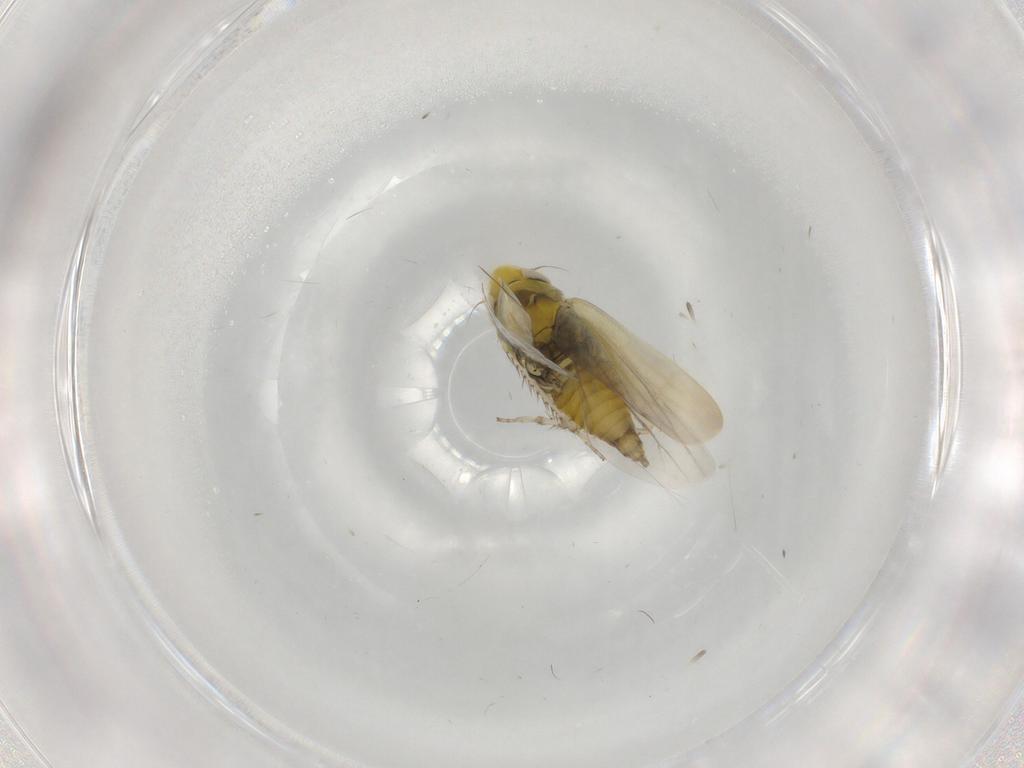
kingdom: Animalia
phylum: Arthropoda
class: Insecta
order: Hemiptera
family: Cicadellidae
